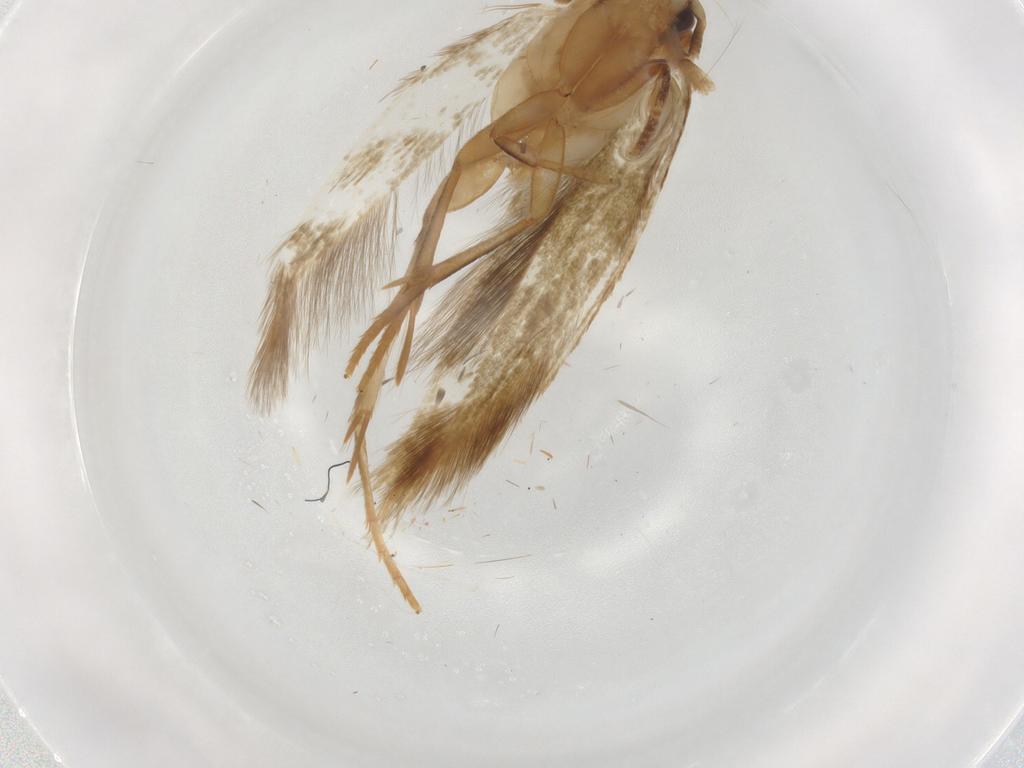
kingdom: Animalia
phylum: Arthropoda
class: Insecta
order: Lepidoptera
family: Tineidae
